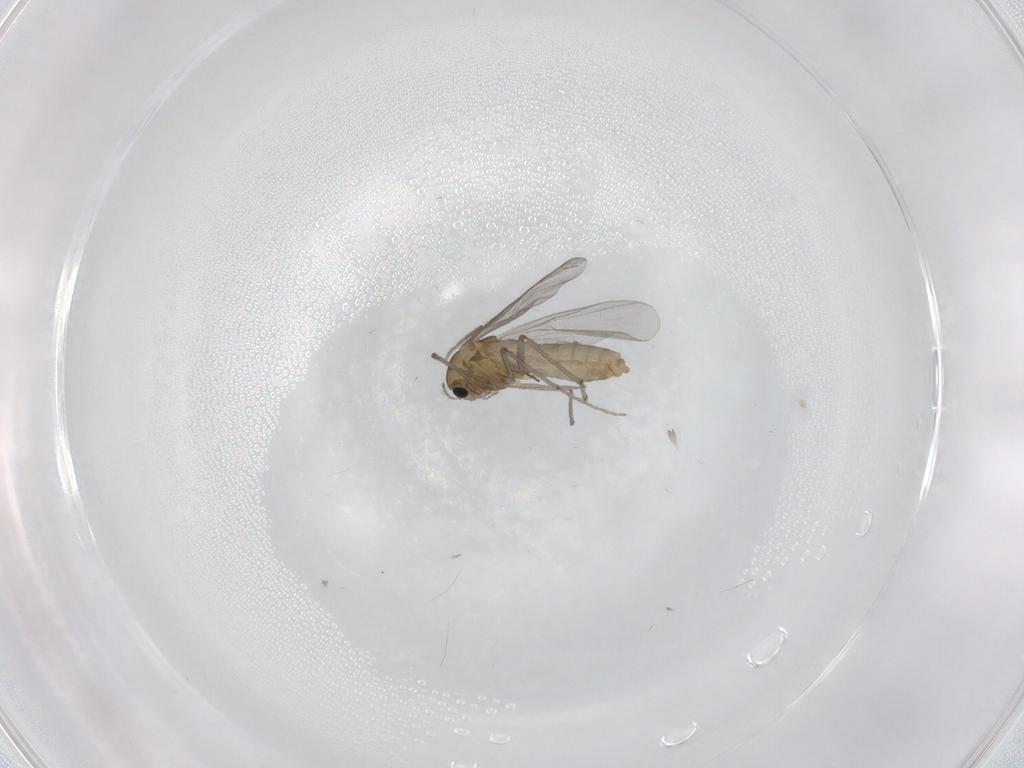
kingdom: Animalia
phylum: Arthropoda
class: Insecta
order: Diptera
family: Chironomidae
